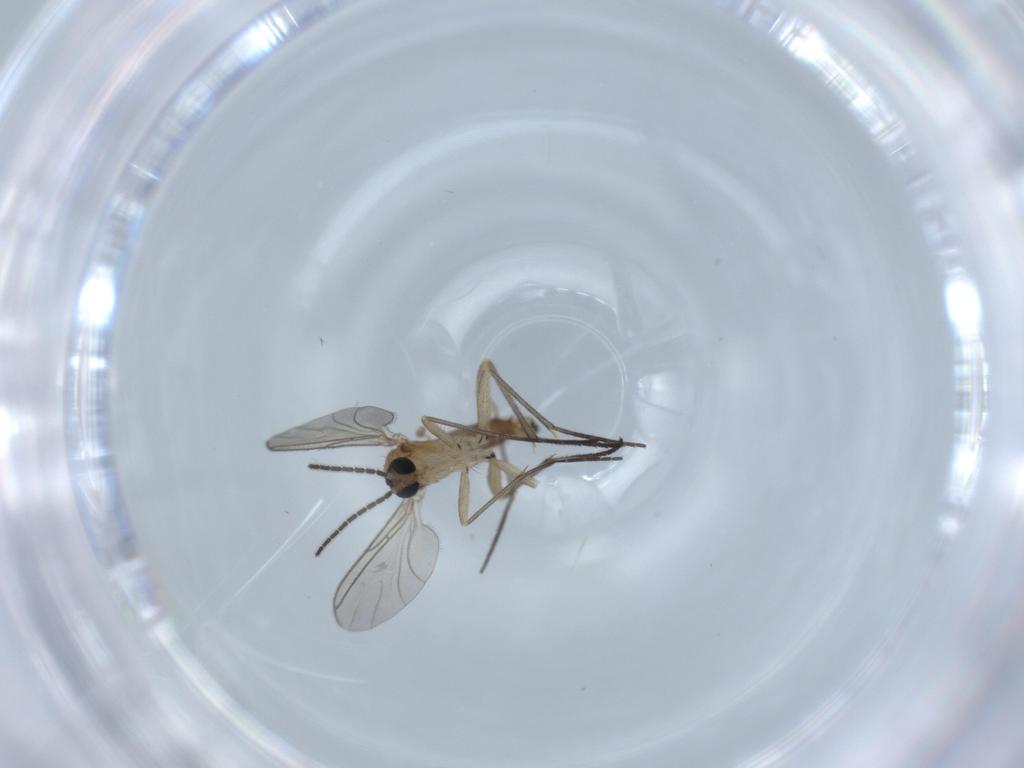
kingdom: Animalia
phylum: Arthropoda
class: Insecta
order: Diptera
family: Sciaridae
